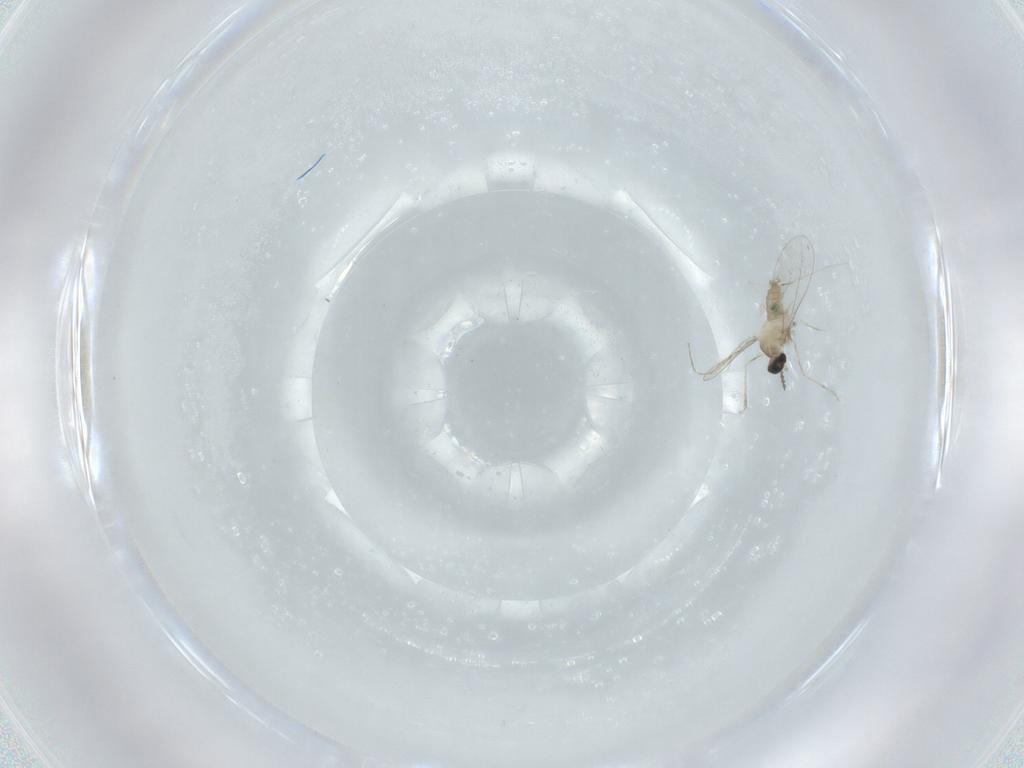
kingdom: Animalia
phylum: Arthropoda
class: Insecta
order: Diptera
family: Cecidomyiidae
